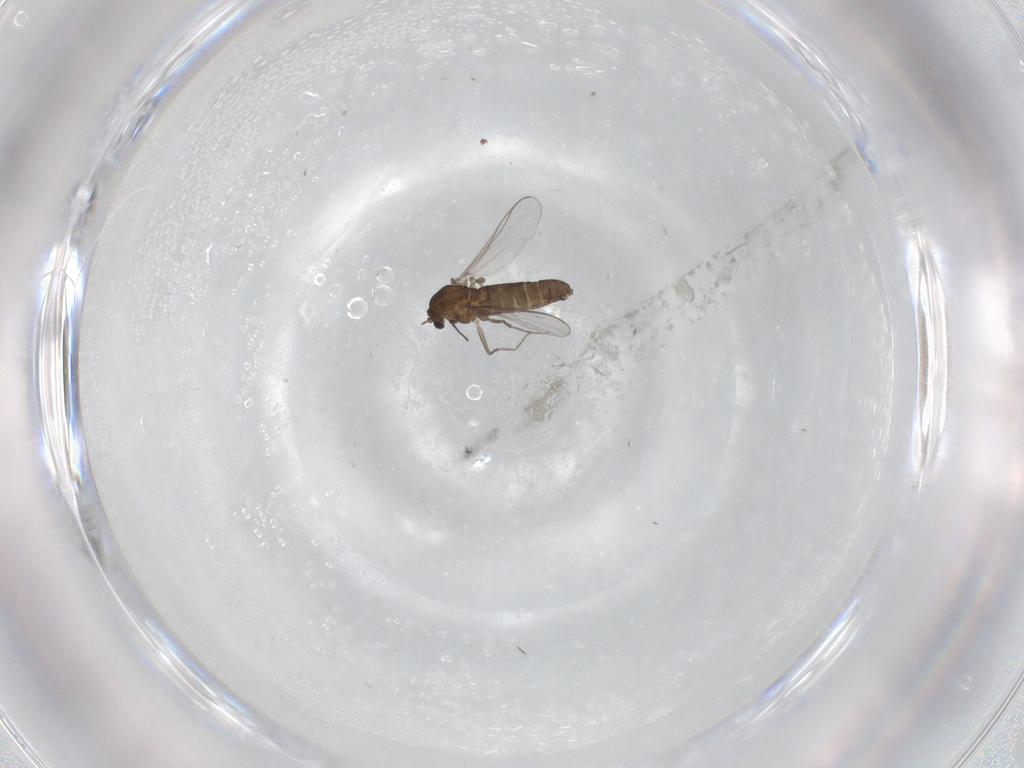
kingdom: Animalia
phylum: Arthropoda
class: Insecta
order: Diptera
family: Chironomidae
